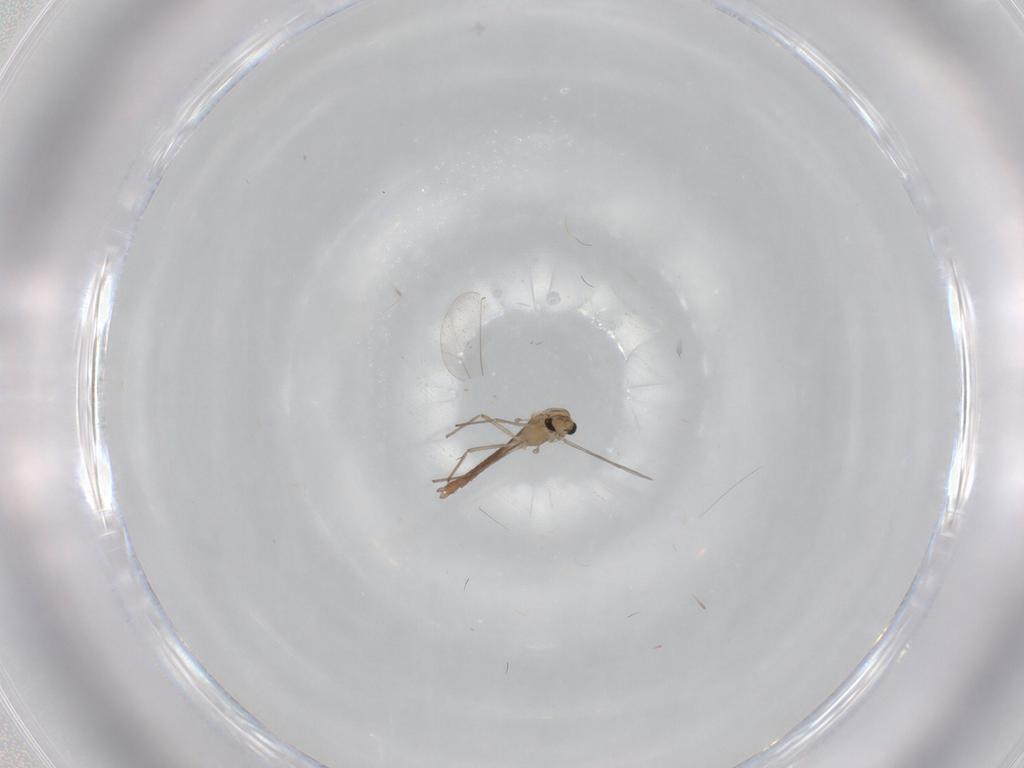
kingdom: Animalia
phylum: Arthropoda
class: Insecta
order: Diptera
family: Chironomidae
